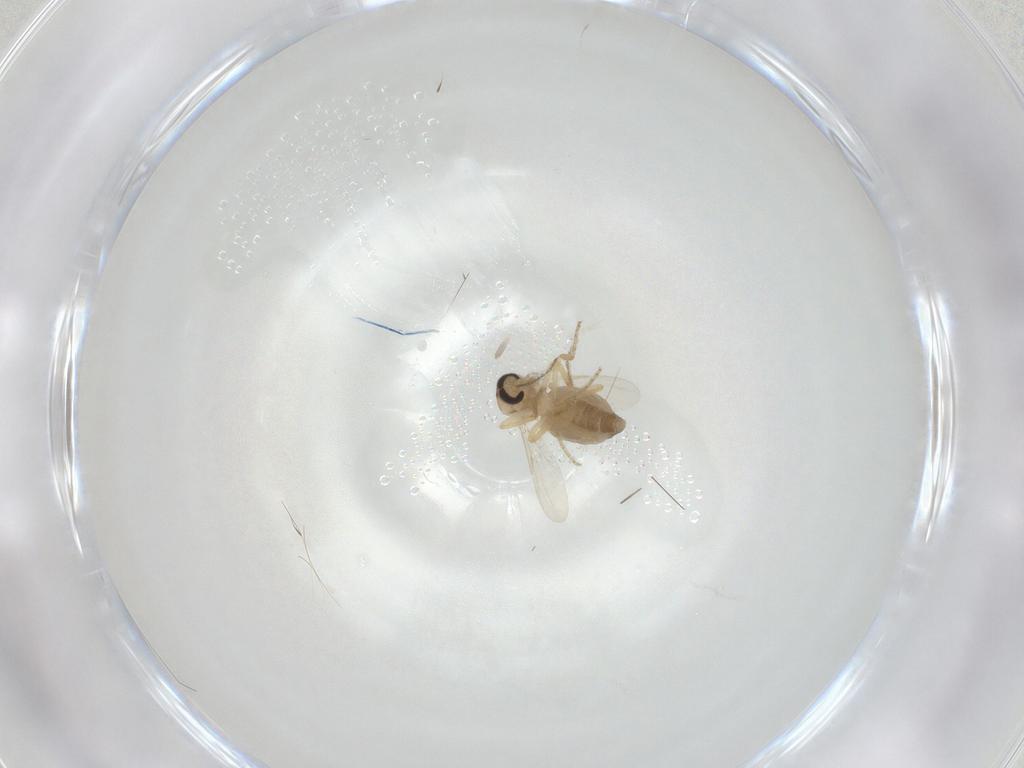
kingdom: Animalia
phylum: Arthropoda
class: Insecta
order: Diptera
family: Ceratopogonidae
